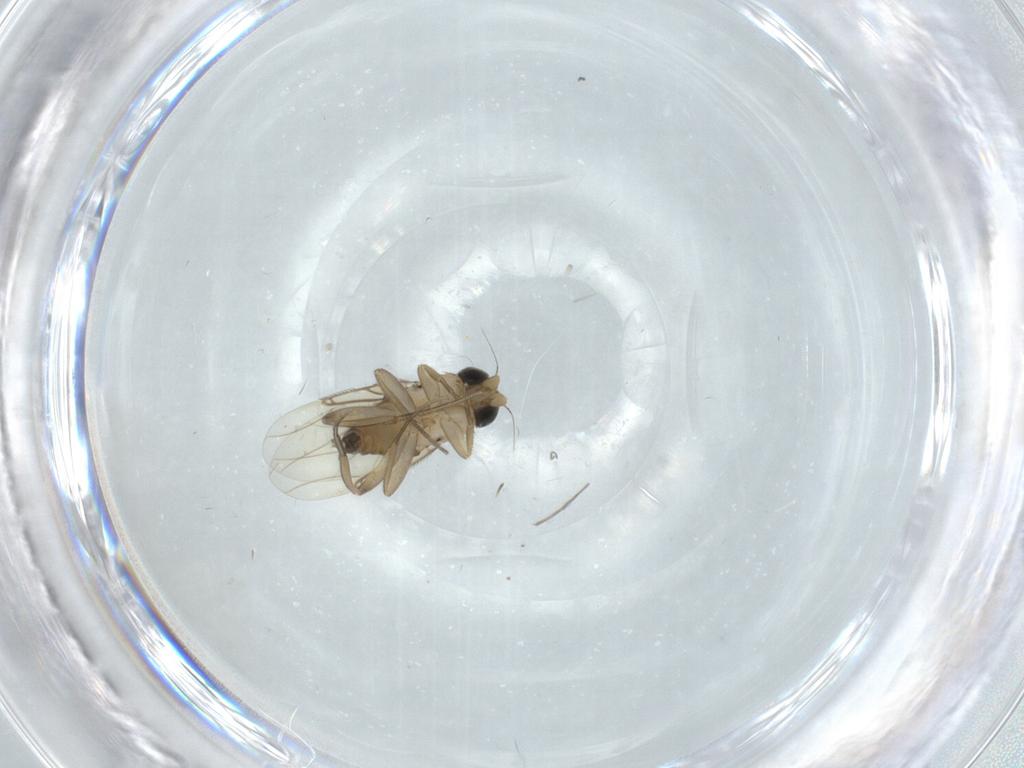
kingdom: Animalia
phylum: Arthropoda
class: Insecta
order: Diptera
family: Phoridae
